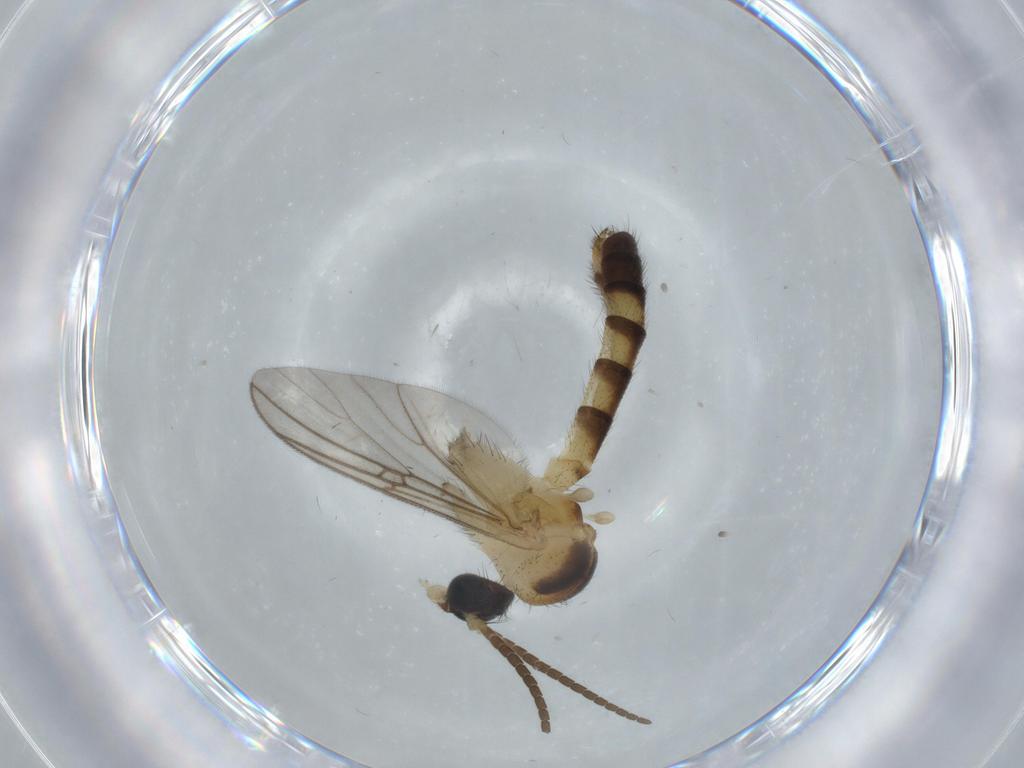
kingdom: Animalia
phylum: Arthropoda
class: Insecta
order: Diptera
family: Mycetophilidae
